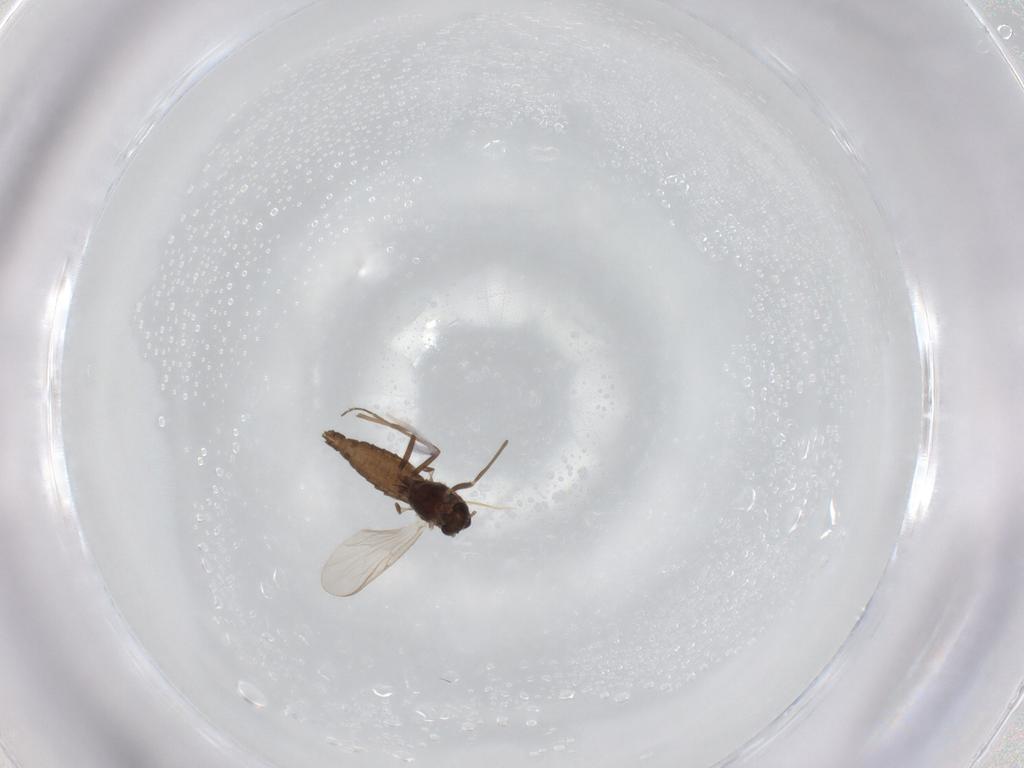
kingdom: Animalia
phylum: Arthropoda
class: Insecta
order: Diptera
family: Chironomidae
